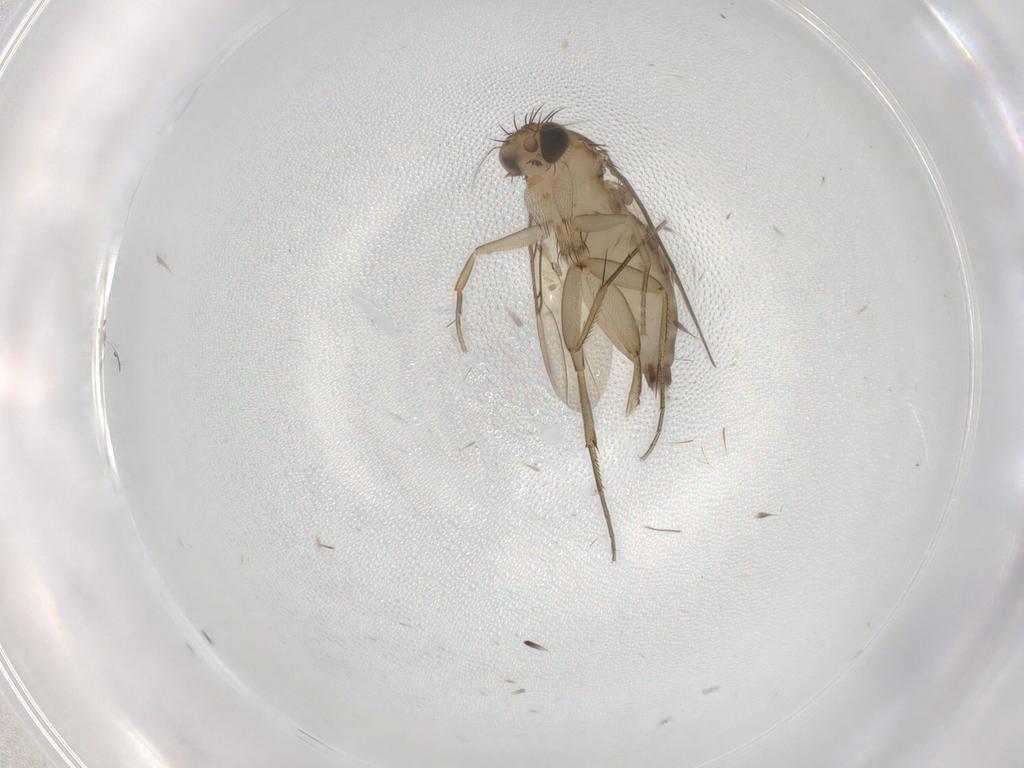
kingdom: Animalia
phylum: Arthropoda
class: Insecta
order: Diptera
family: Phoridae
